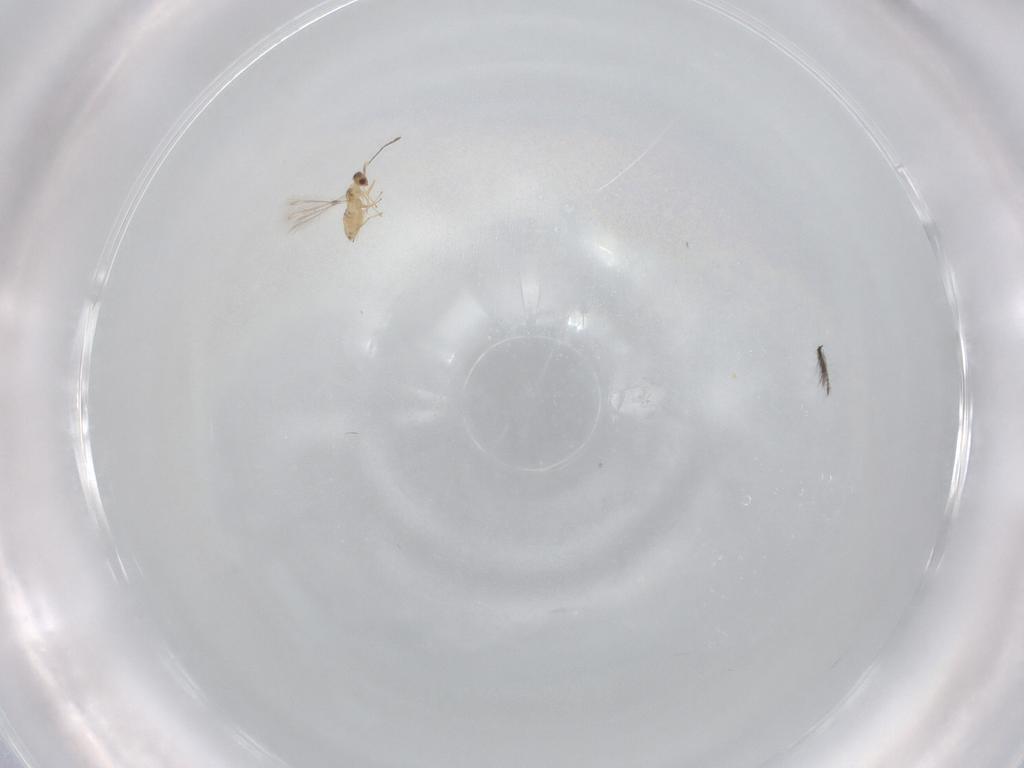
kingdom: Animalia
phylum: Arthropoda
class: Insecta
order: Hymenoptera
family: Mymaridae
